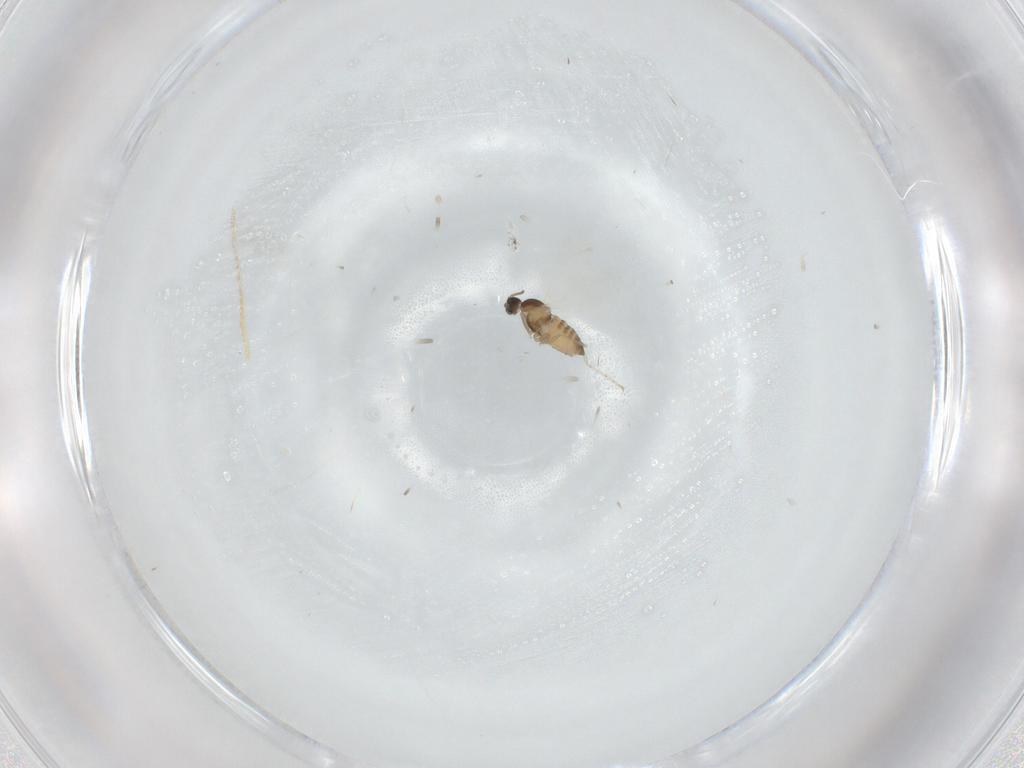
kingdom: Animalia
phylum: Arthropoda
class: Insecta
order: Diptera
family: Cecidomyiidae
